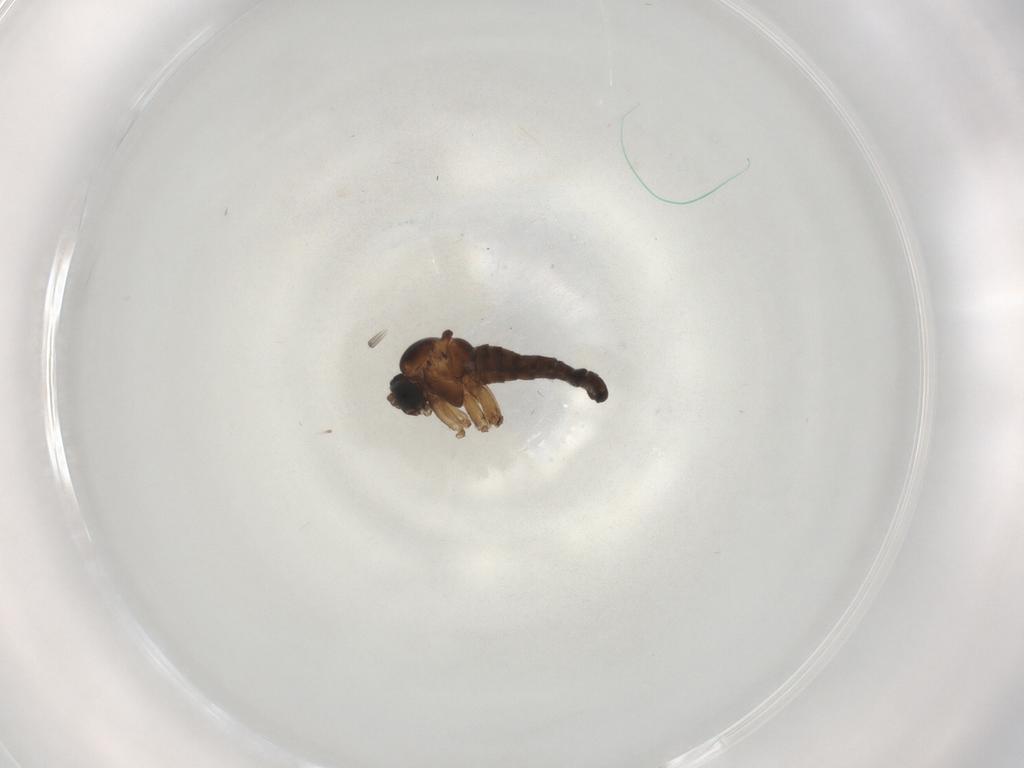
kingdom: Animalia
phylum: Arthropoda
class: Insecta
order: Diptera
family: Sciaridae
